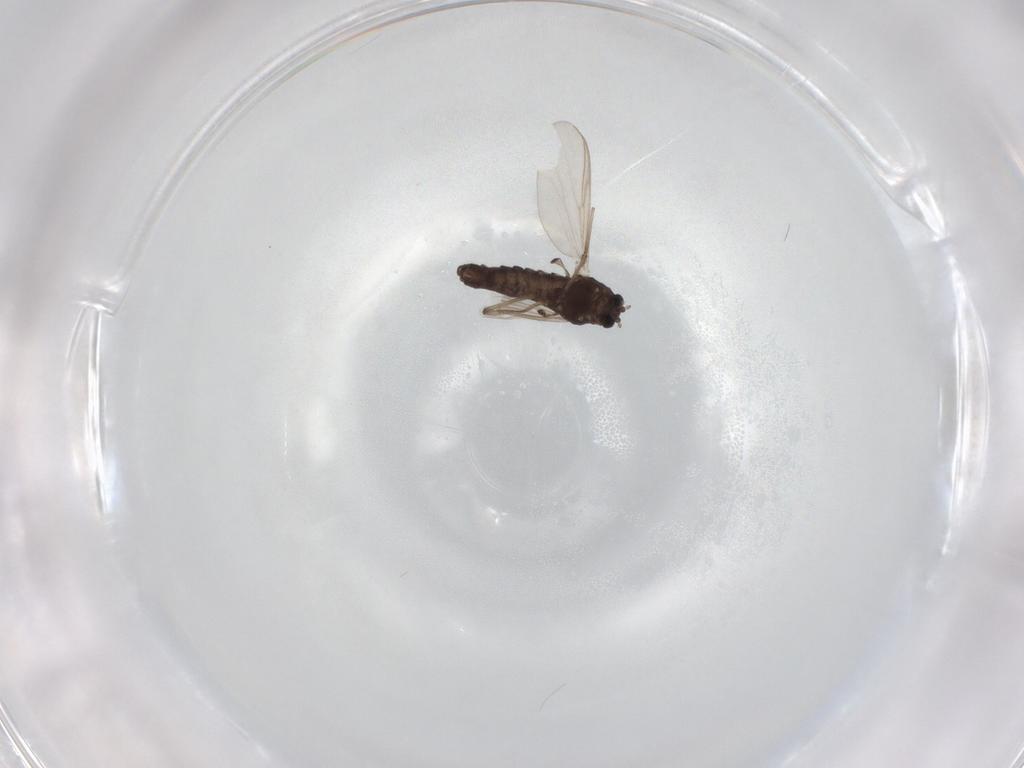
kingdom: Animalia
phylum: Arthropoda
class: Insecta
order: Diptera
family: Chironomidae
